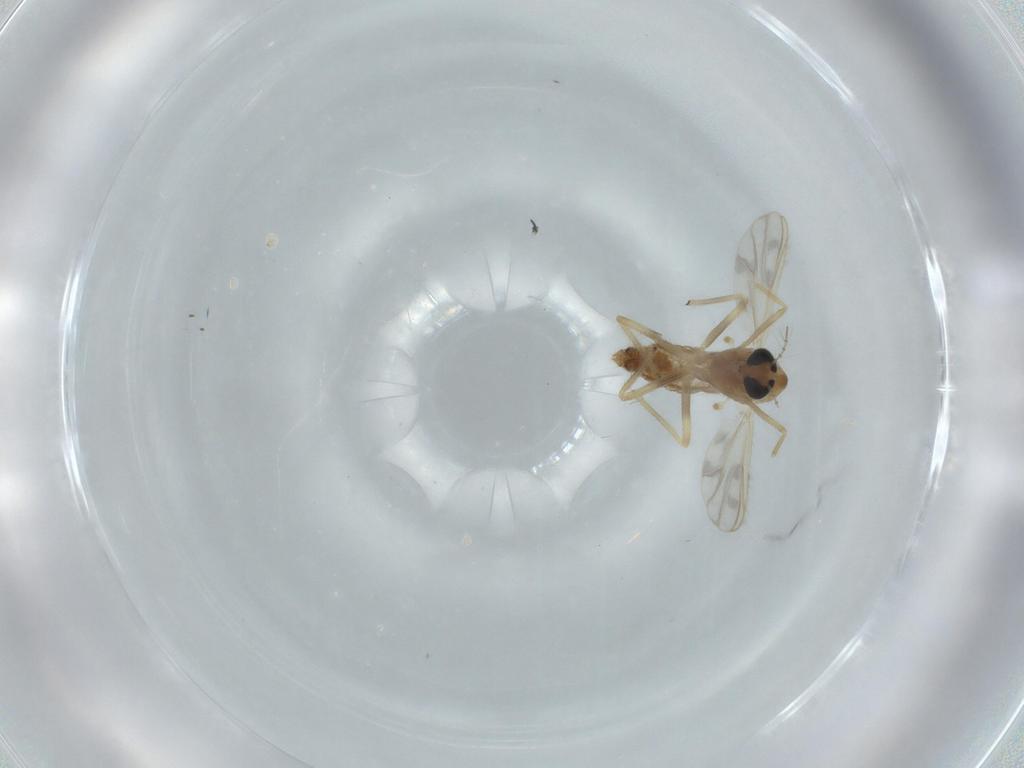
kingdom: Animalia
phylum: Arthropoda
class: Insecta
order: Diptera
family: Chironomidae
